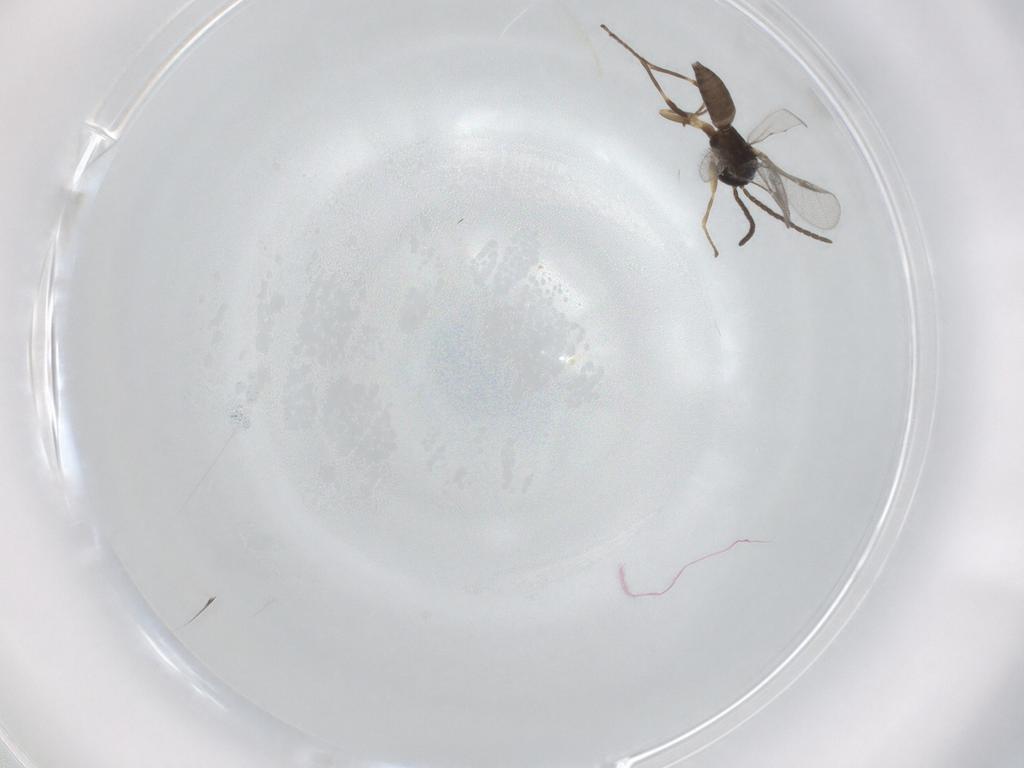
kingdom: Animalia
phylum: Arthropoda
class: Insecta
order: Hymenoptera
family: Braconidae
